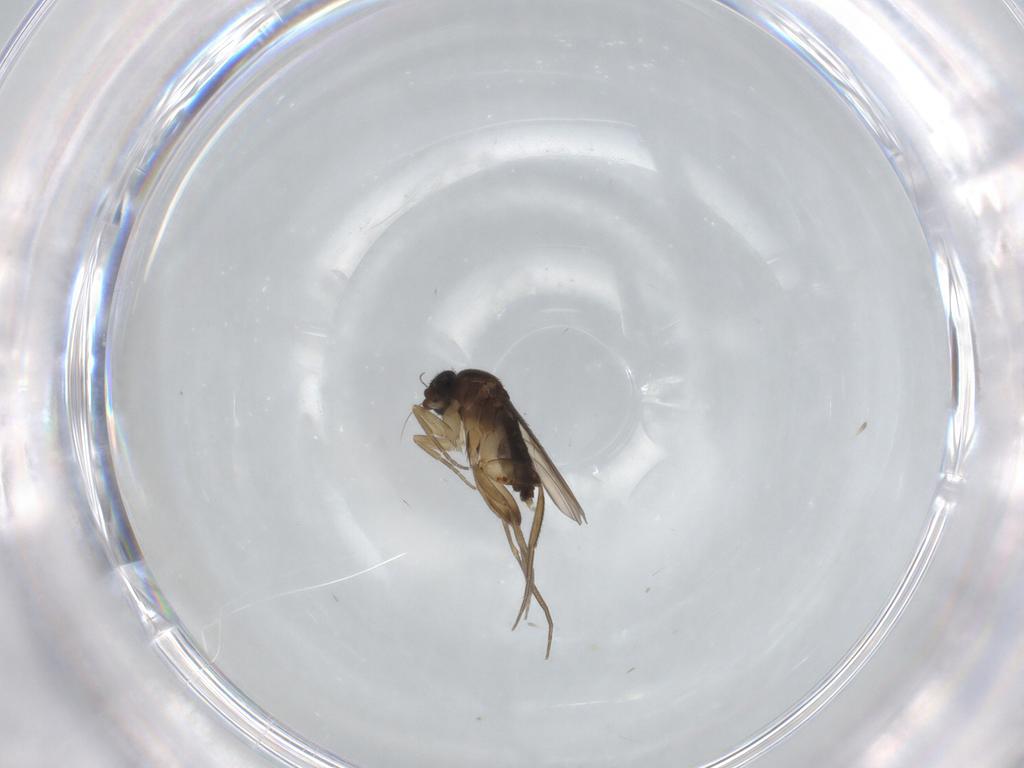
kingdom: Animalia
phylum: Arthropoda
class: Insecta
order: Diptera
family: Phoridae
